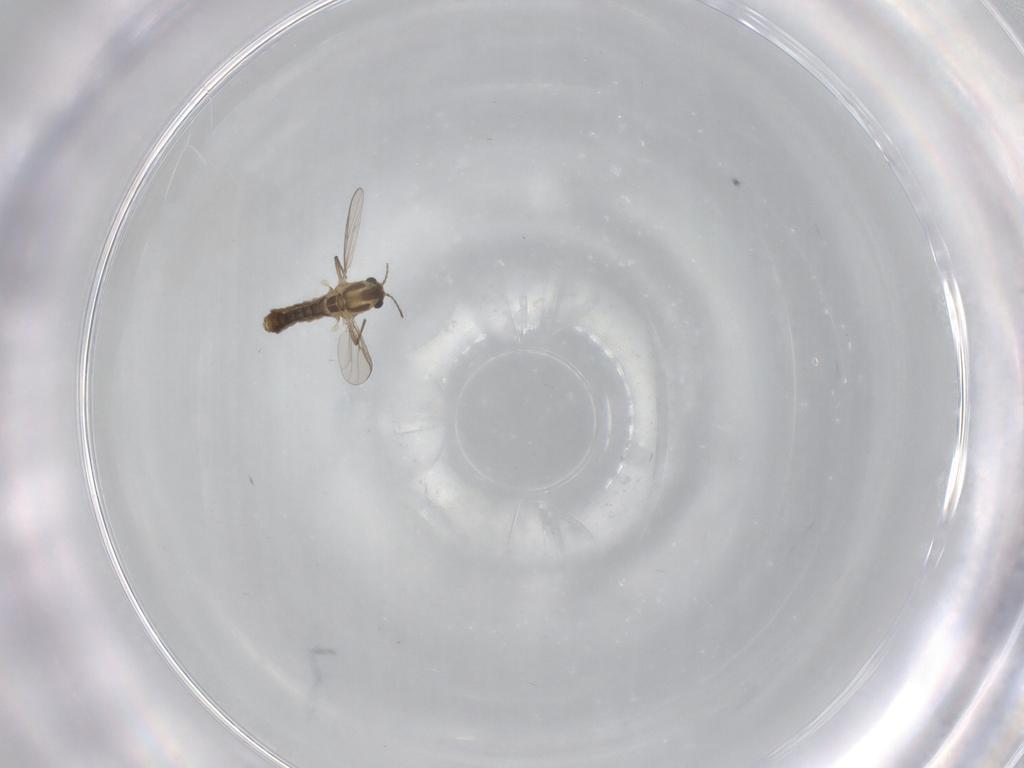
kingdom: Animalia
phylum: Arthropoda
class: Insecta
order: Diptera
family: Chironomidae
